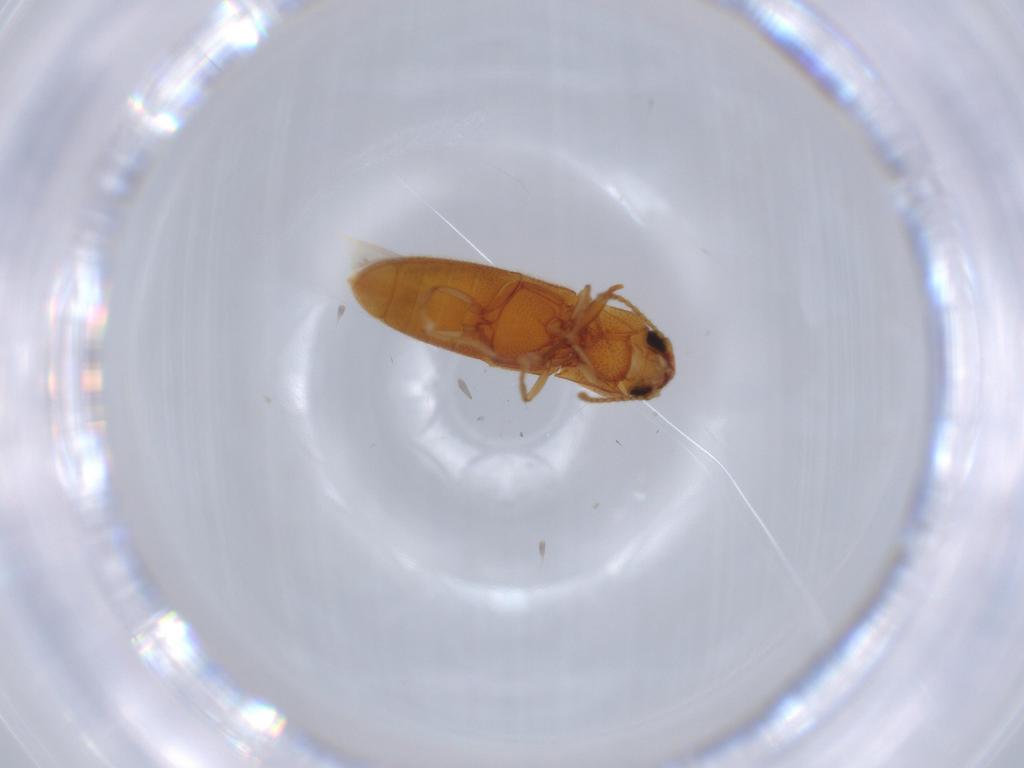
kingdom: Animalia
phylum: Arthropoda
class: Insecta
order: Coleoptera
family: Elateridae
